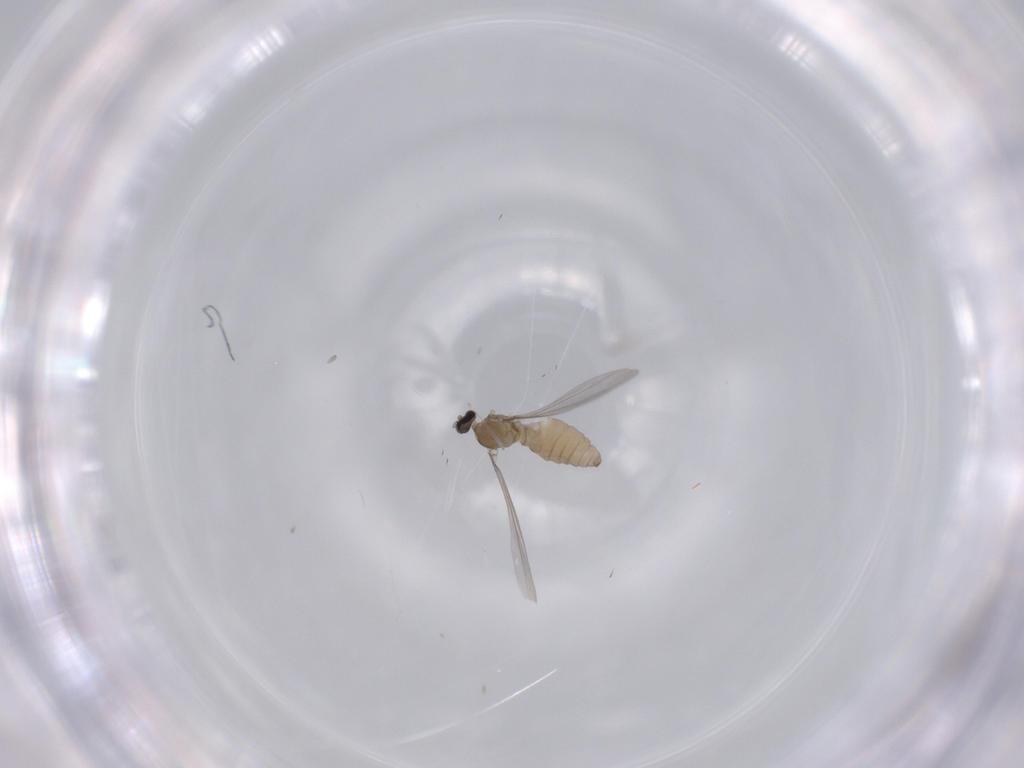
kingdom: Animalia
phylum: Arthropoda
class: Insecta
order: Diptera
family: Cecidomyiidae
